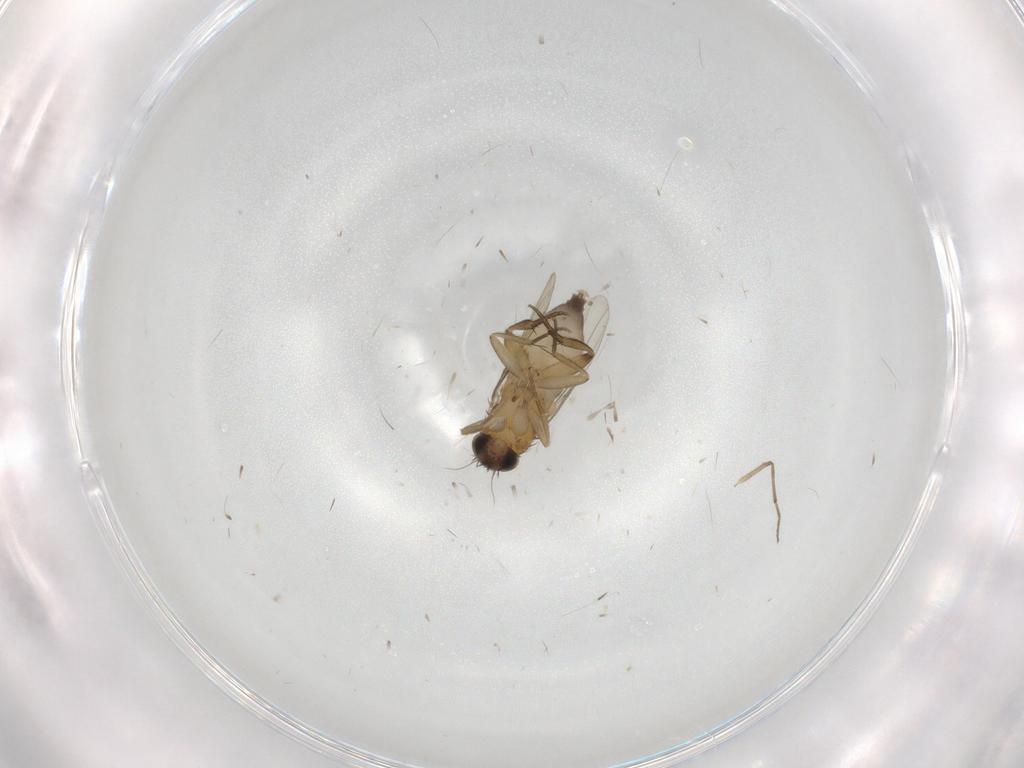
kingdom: Animalia
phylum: Arthropoda
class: Insecta
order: Diptera
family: Phoridae
